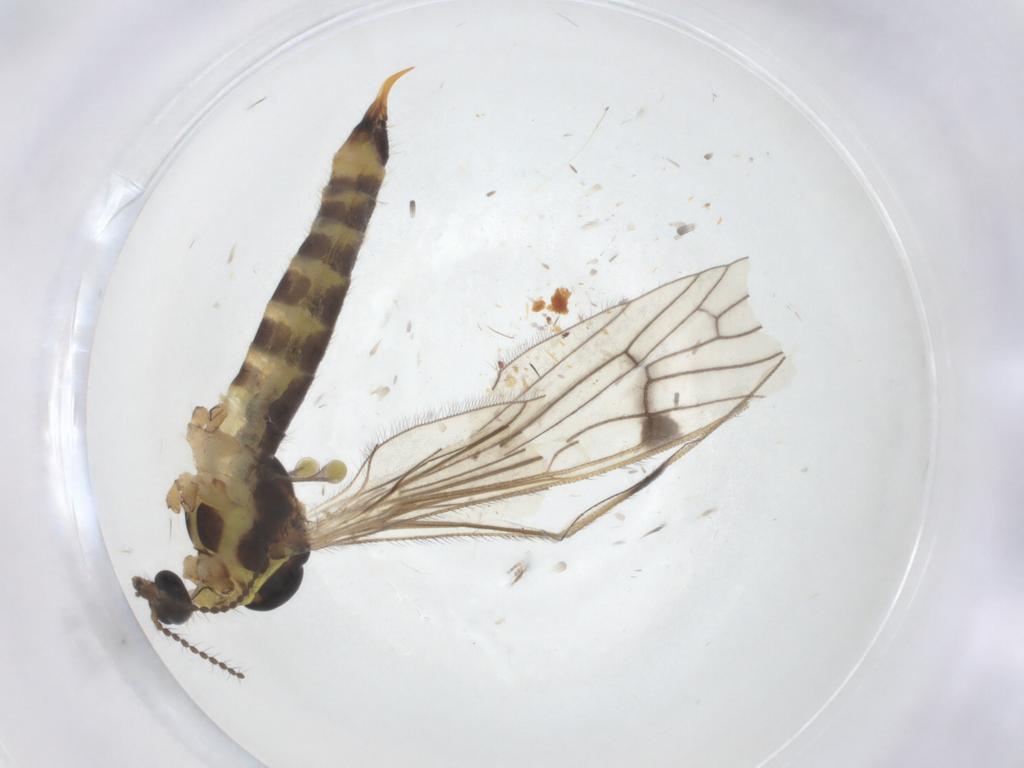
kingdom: Animalia
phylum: Arthropoda
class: Insecta
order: Diptera
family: Limoniidae
